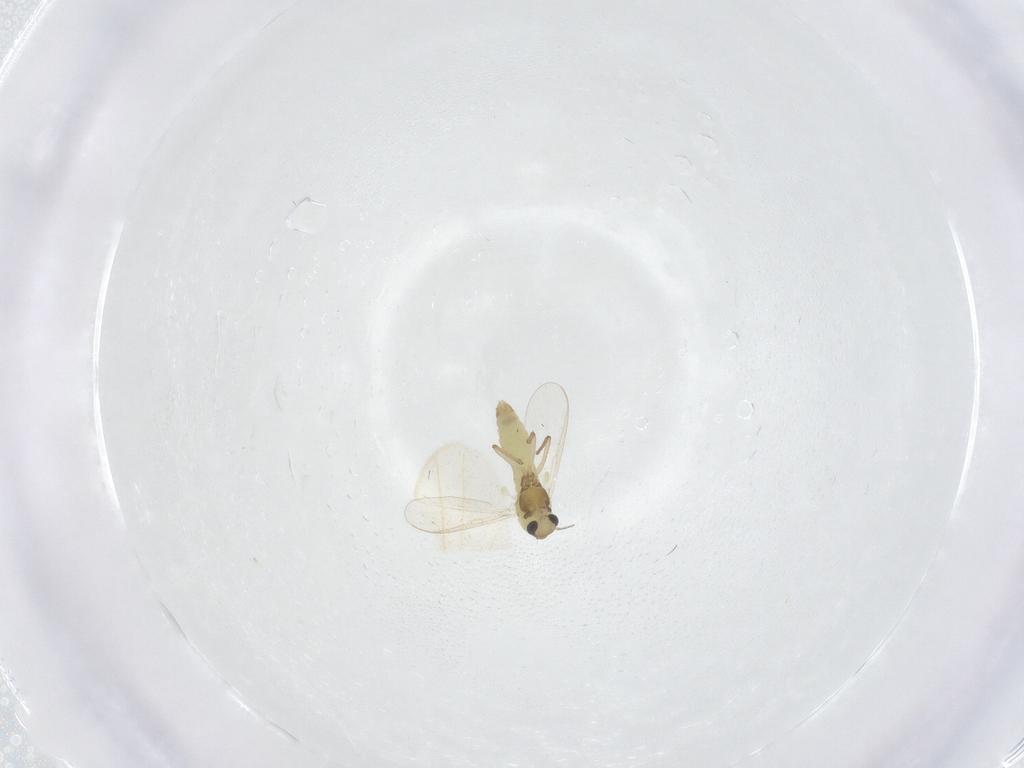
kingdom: Animalia
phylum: Arthropoda
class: Insecta
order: Diptera
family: Chironomidae
